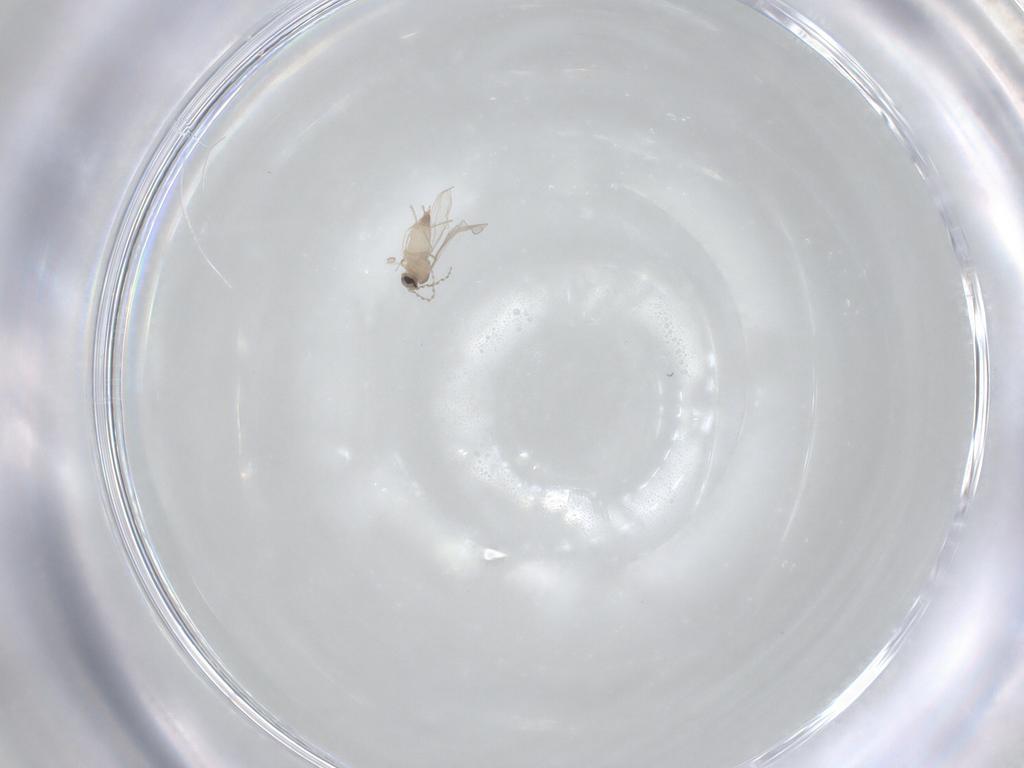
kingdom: Animalia
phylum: Arthropoda
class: Insecta
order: Diptera
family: Cecidomyiidae
